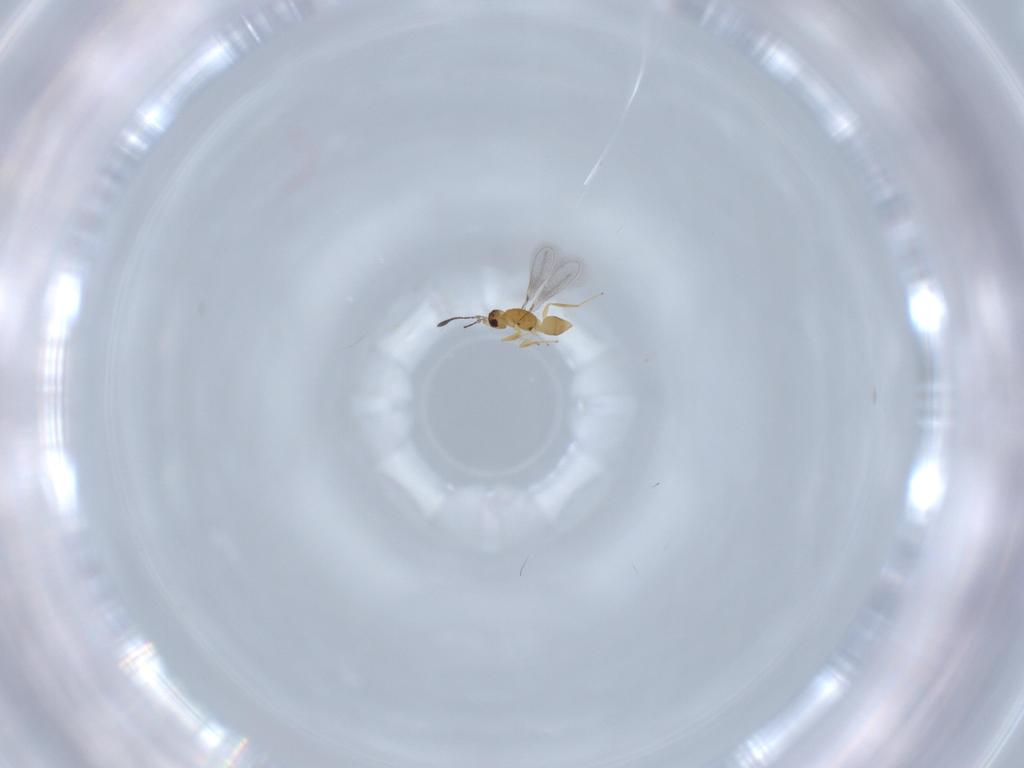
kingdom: Animalia
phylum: Arthropoda
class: Insecta
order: Hymenoptera
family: Mymaridae
